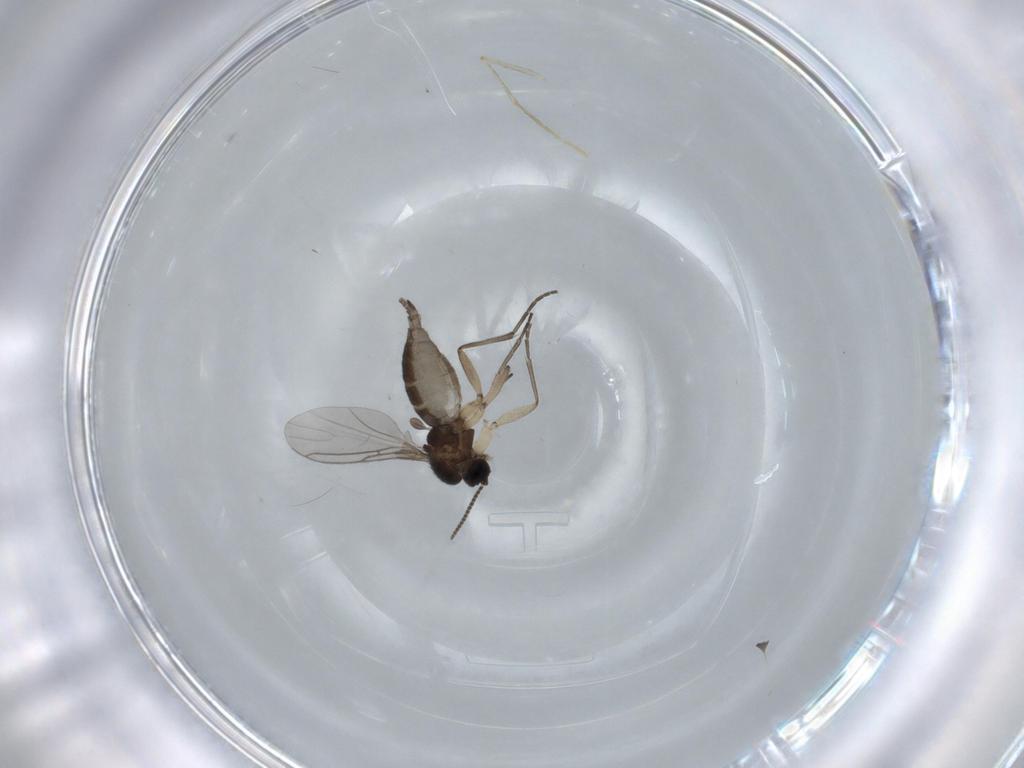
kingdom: Animalia
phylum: Arthropoda
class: Insecta
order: Diptera
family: Sciaridae
